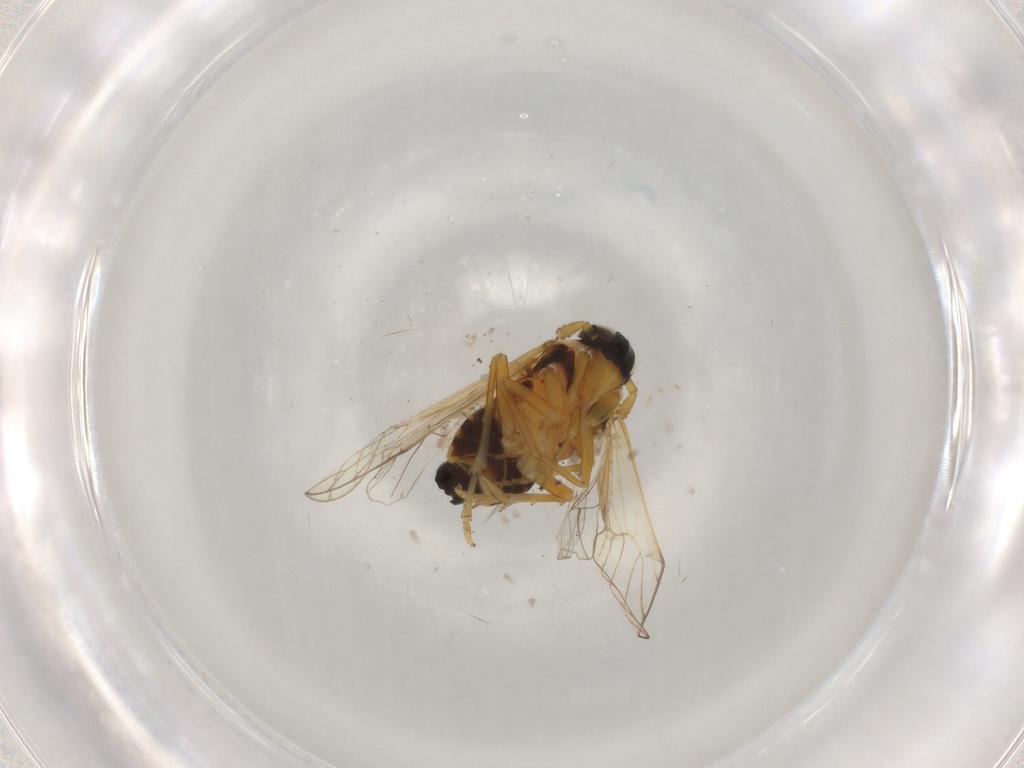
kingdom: Animalia
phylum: Arthropoda
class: Insecta
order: Hemiptera
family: Delphacidae
